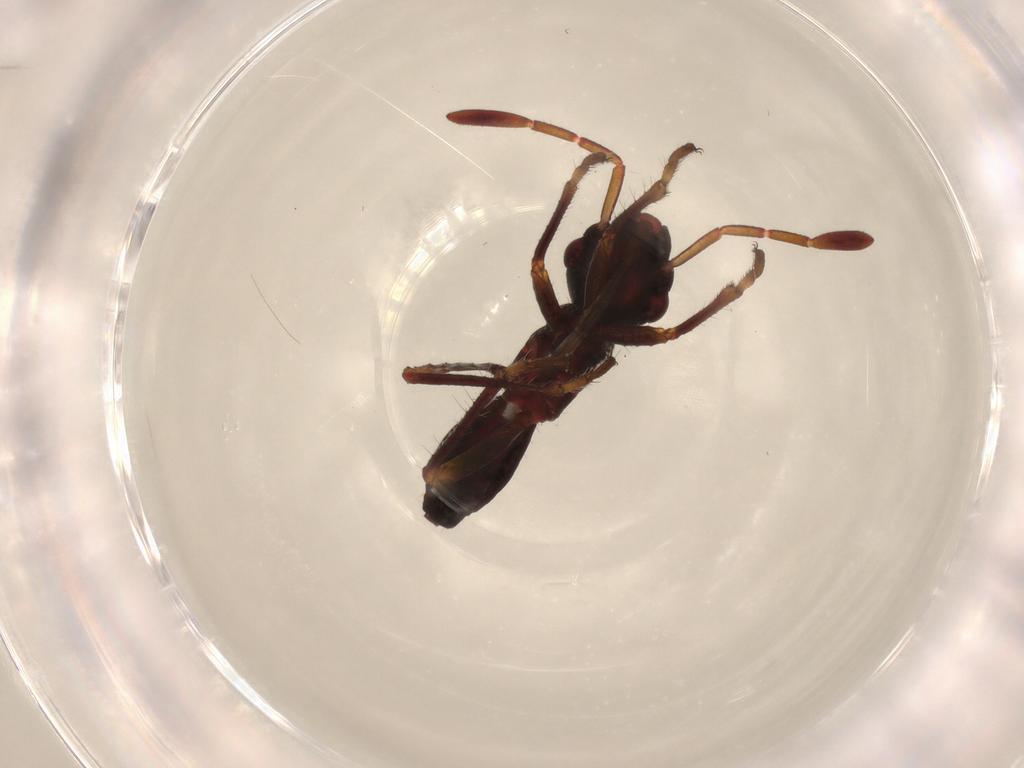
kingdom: Animalia
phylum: Arthropoda
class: Insecta
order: Hemiptera
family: Alydidae
